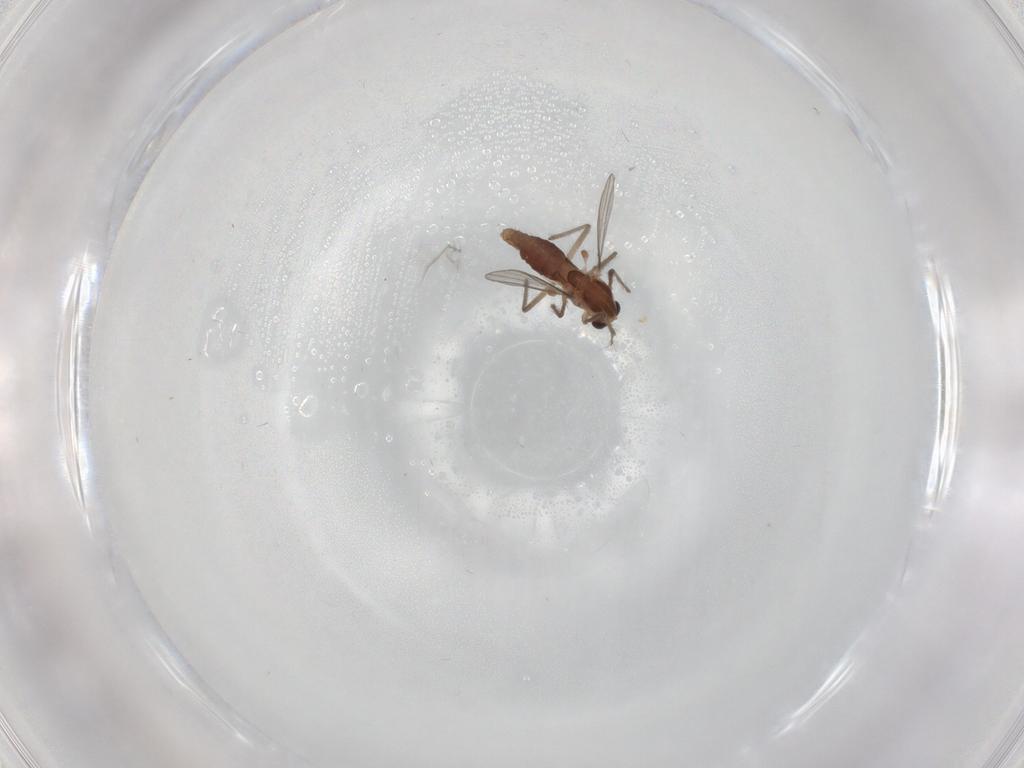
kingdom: Animalia
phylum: Arthropoda
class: Insecta
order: Diptera
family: Chironomidae
